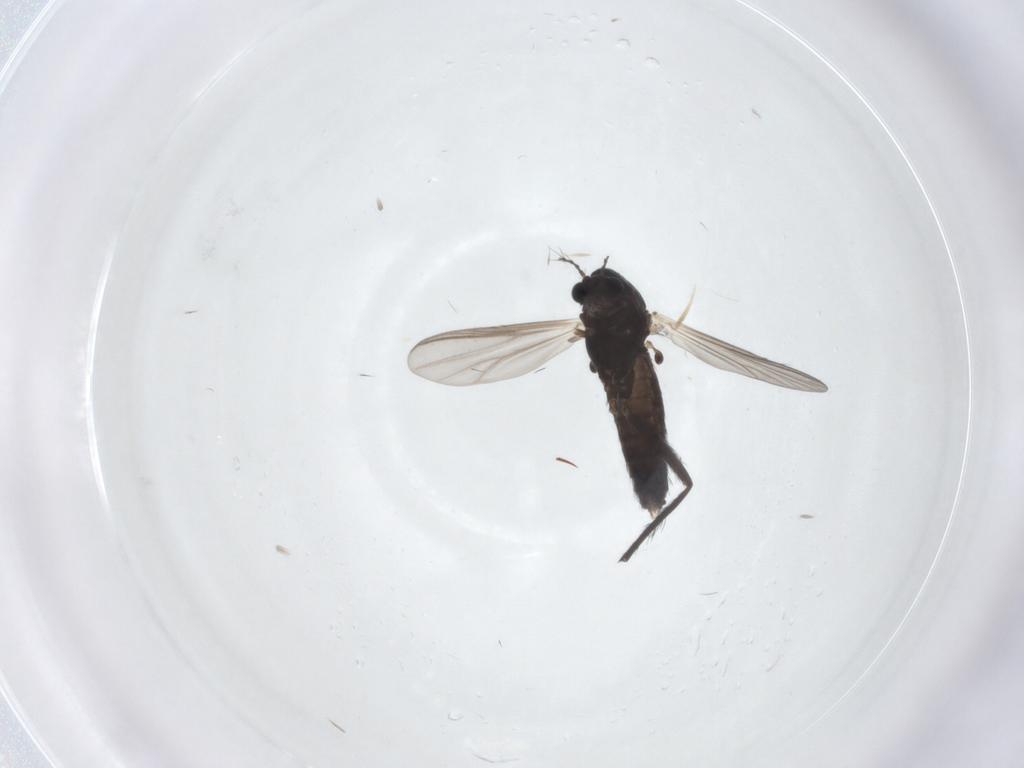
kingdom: Animalia
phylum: Arthropoda
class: Insecta
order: Diptera
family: Chironomidae
